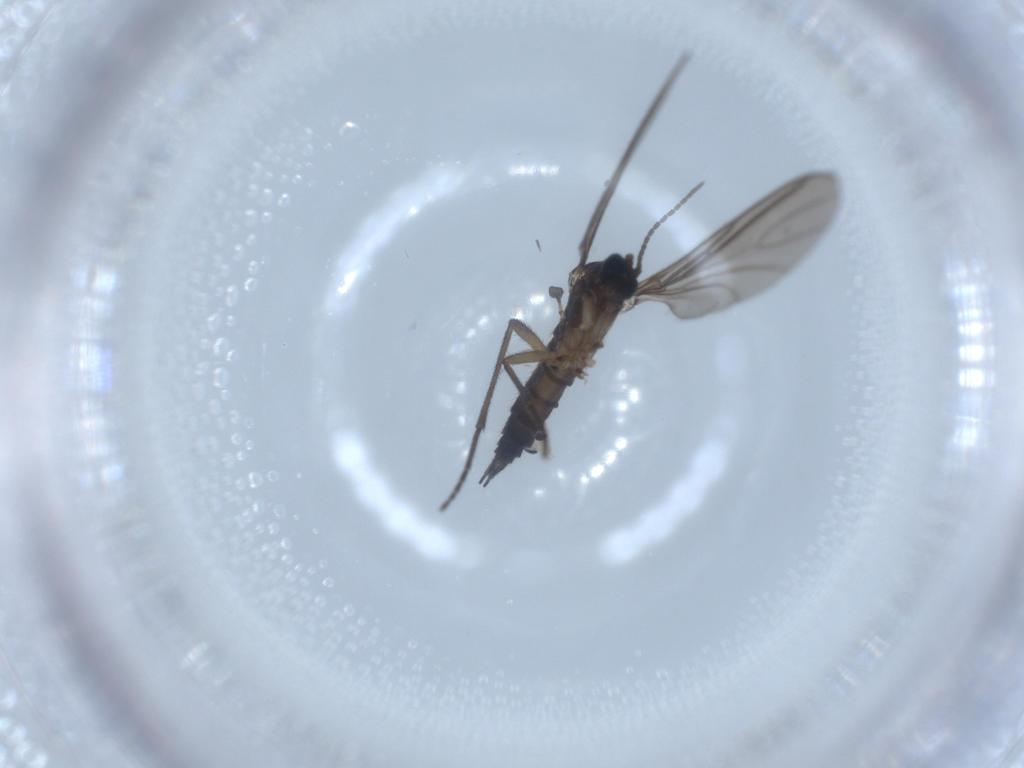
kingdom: Animalia
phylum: Arthropoda
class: Insecta
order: Diptera
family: Cecidomyiidae
